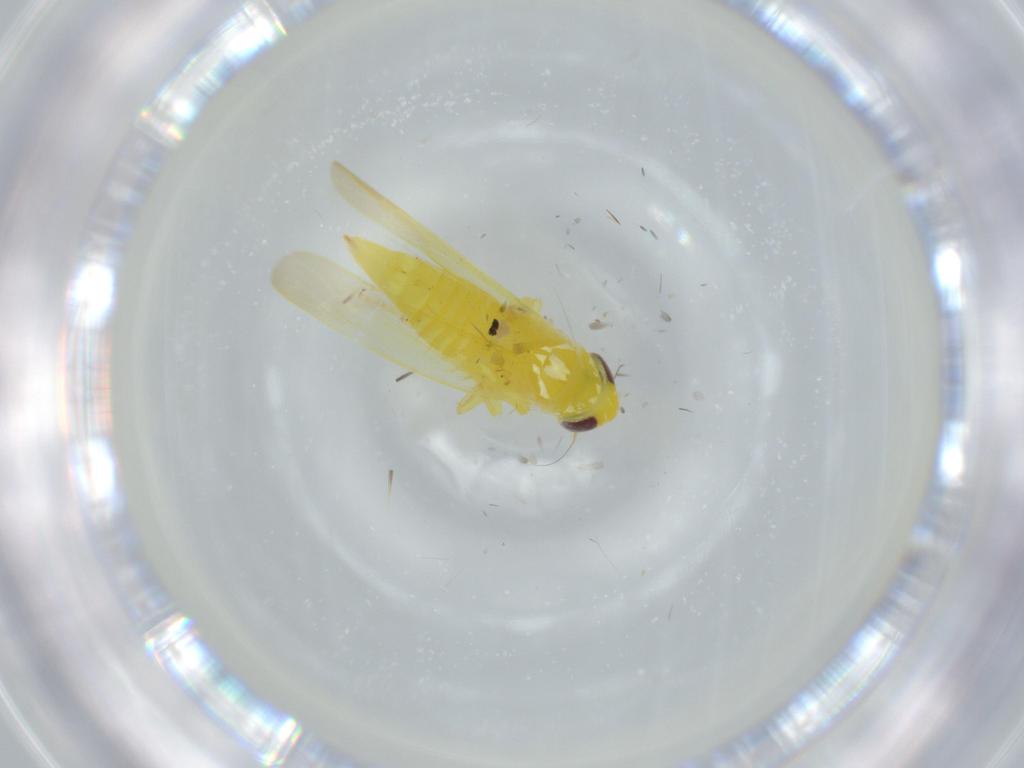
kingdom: Animalia
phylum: Arthropoda
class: Insecta
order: Hemiptera
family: Cicadellidae
